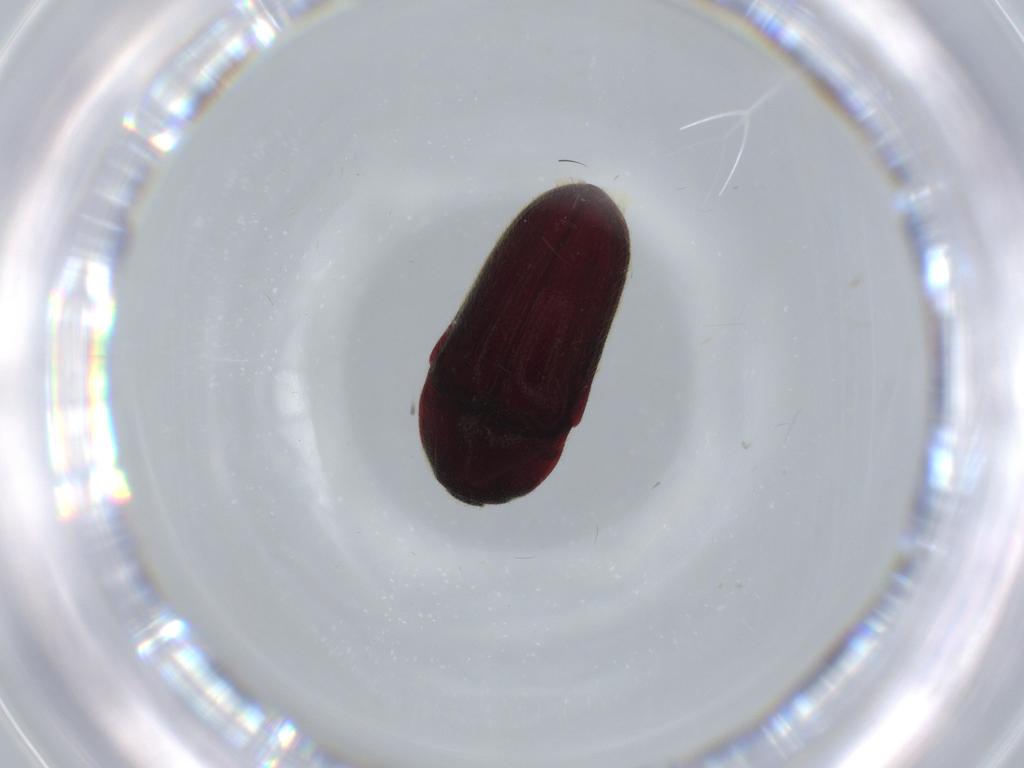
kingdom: Animalia
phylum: Arthropoda
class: Insecta
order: Coleoptera
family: Throscidae
